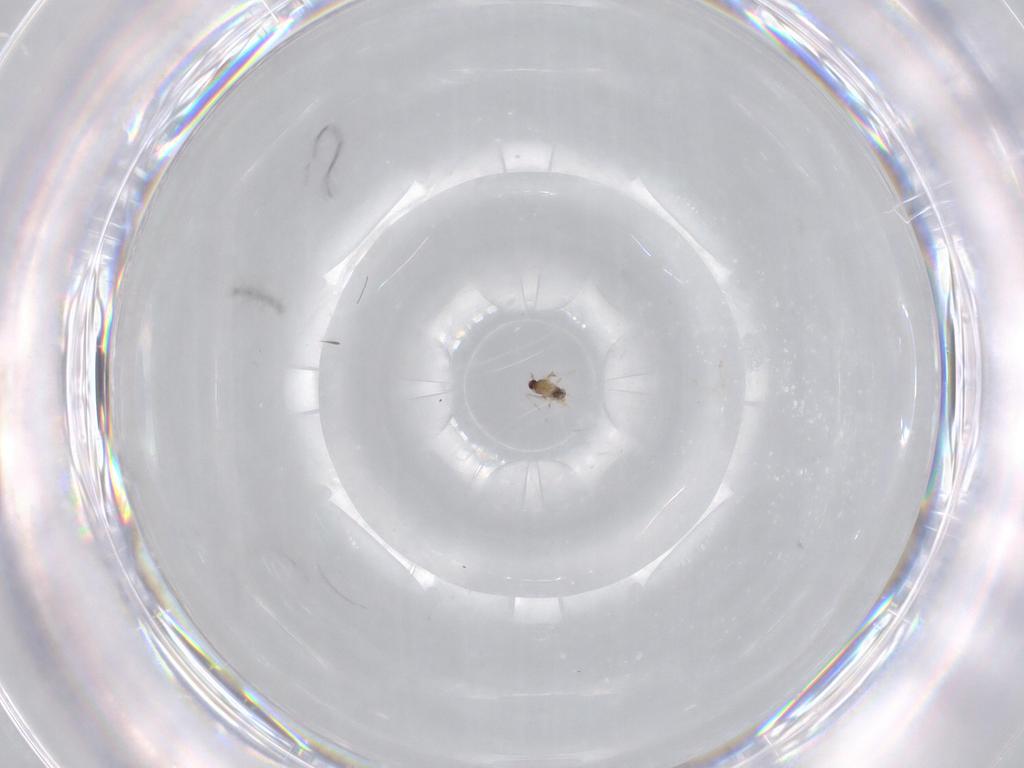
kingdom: Animalia
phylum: Arthropoda
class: Insecta
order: Diptera
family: Cecidomyiidae
